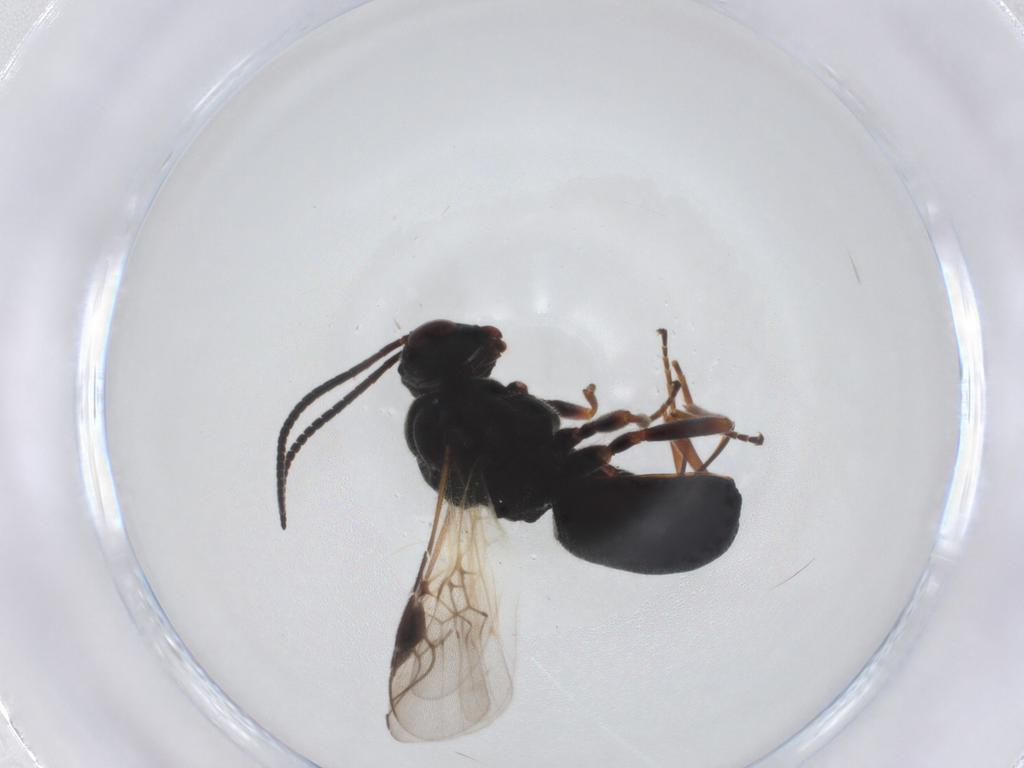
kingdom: Animalia
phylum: Arthropoda
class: Insecta
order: Hymenoptera
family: Braconidae
